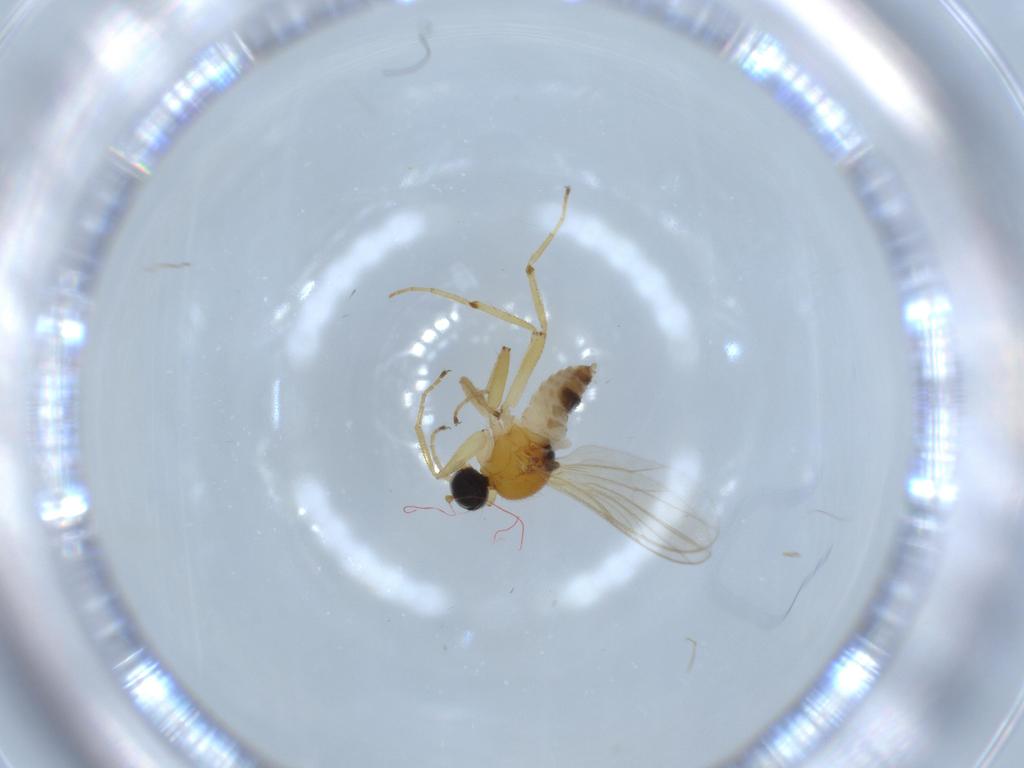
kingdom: Animalia
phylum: Arthropoda
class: Insecta
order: Diptera
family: Hybotidae
